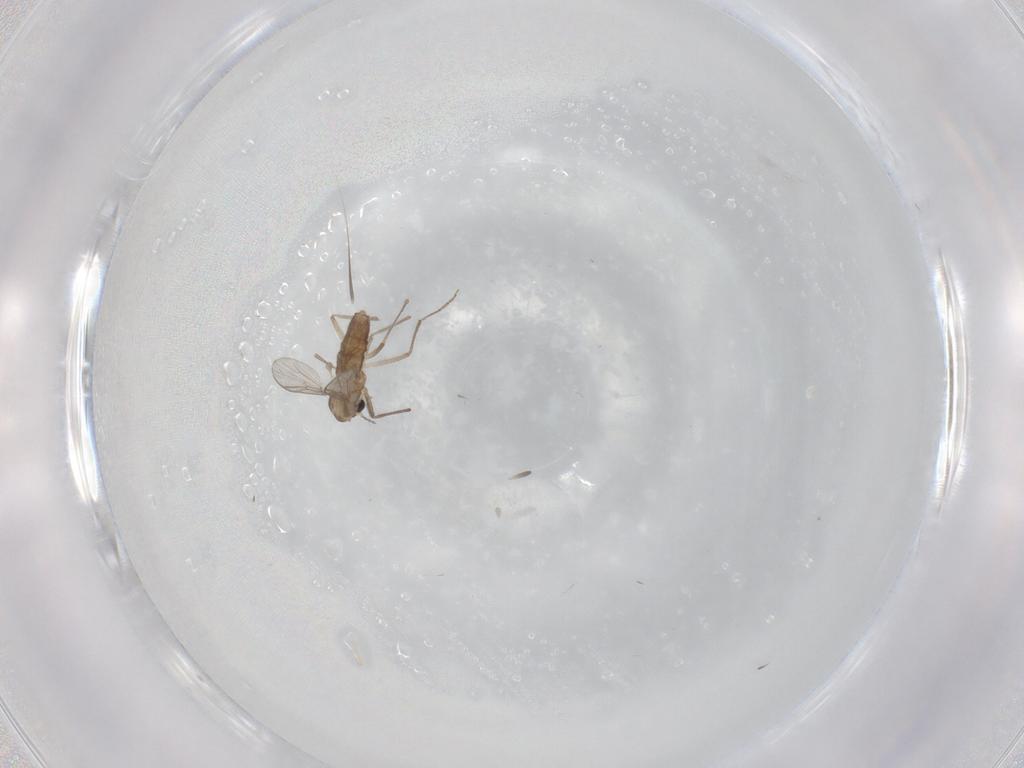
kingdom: Animalia
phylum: Arthropoda
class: Insecta
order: Diptera
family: Chironomidae
